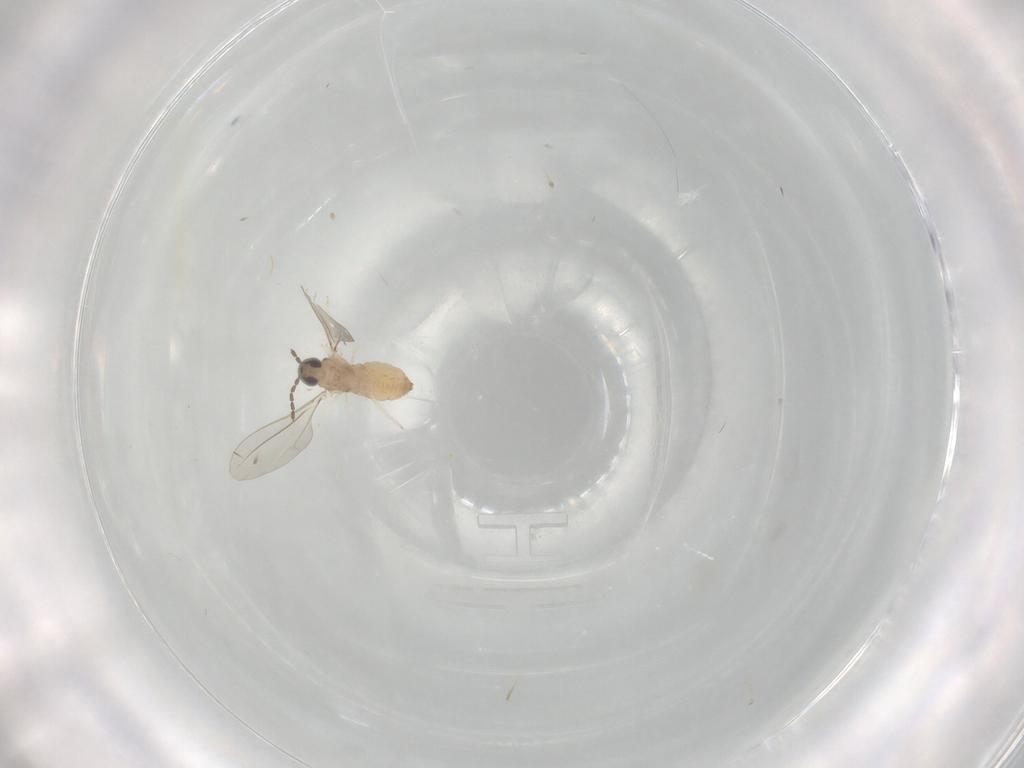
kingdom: Animalia
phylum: Arthropoda
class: Insecta
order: Diptera
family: Cecidomyiidae
